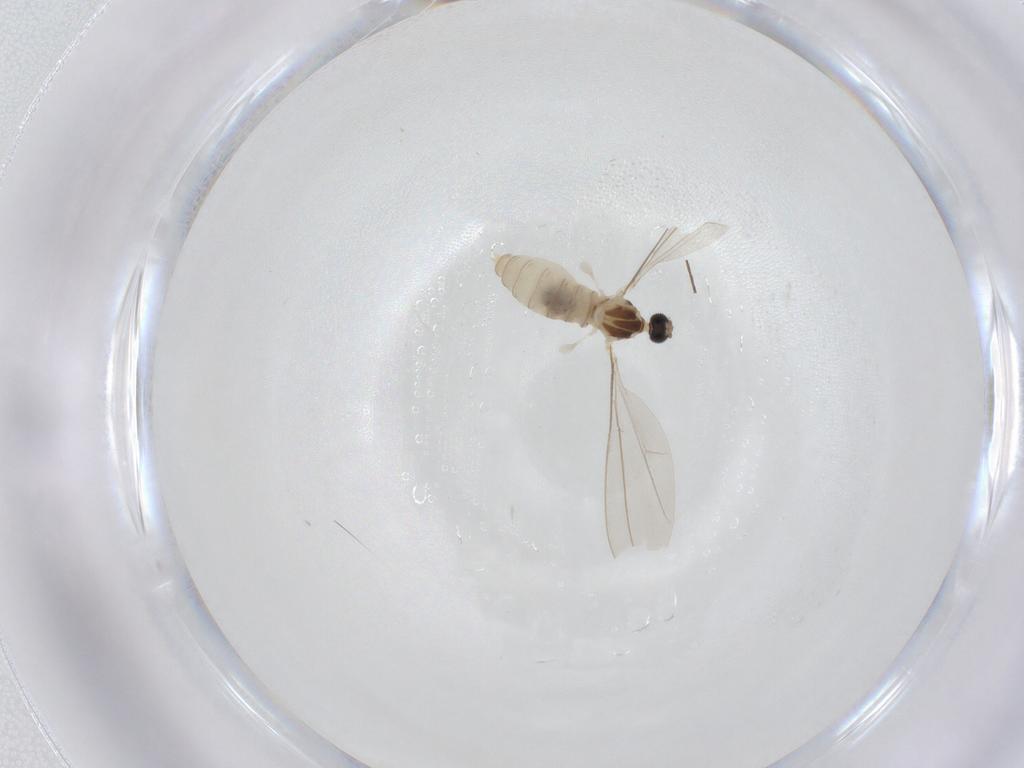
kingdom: Animalia
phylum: Arthropoda
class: Insecta
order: Diptera
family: Cecidomyiidae
